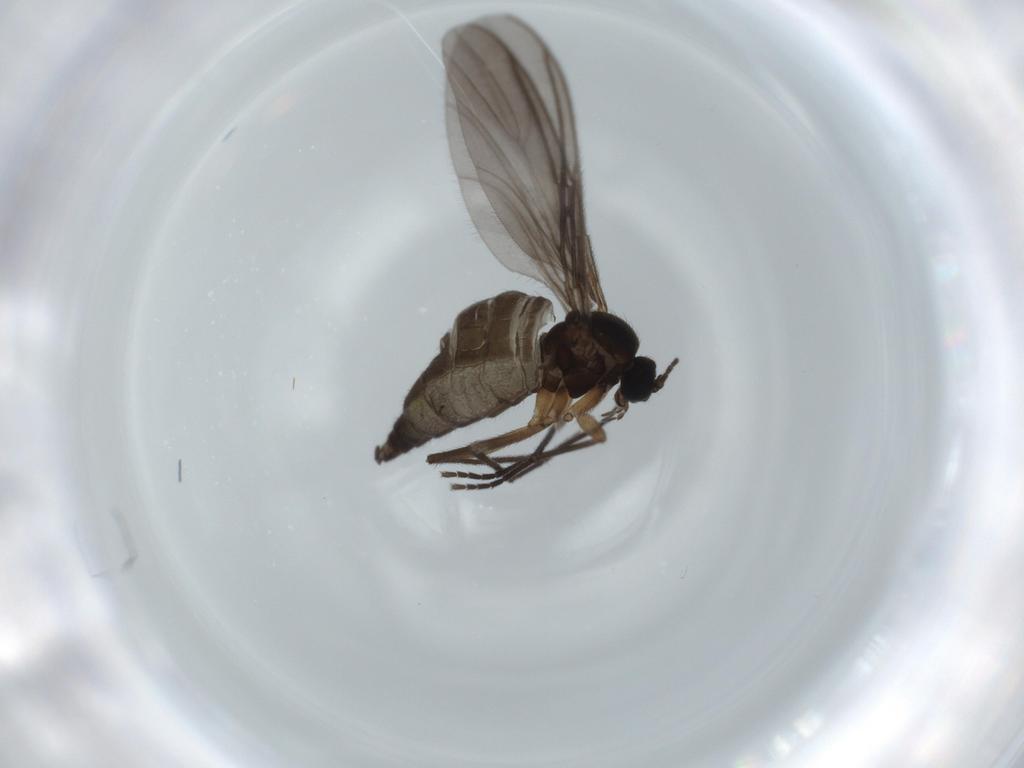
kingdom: Animalia
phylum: Arthropoda
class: Insecta
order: Diptera
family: Sciaridae
